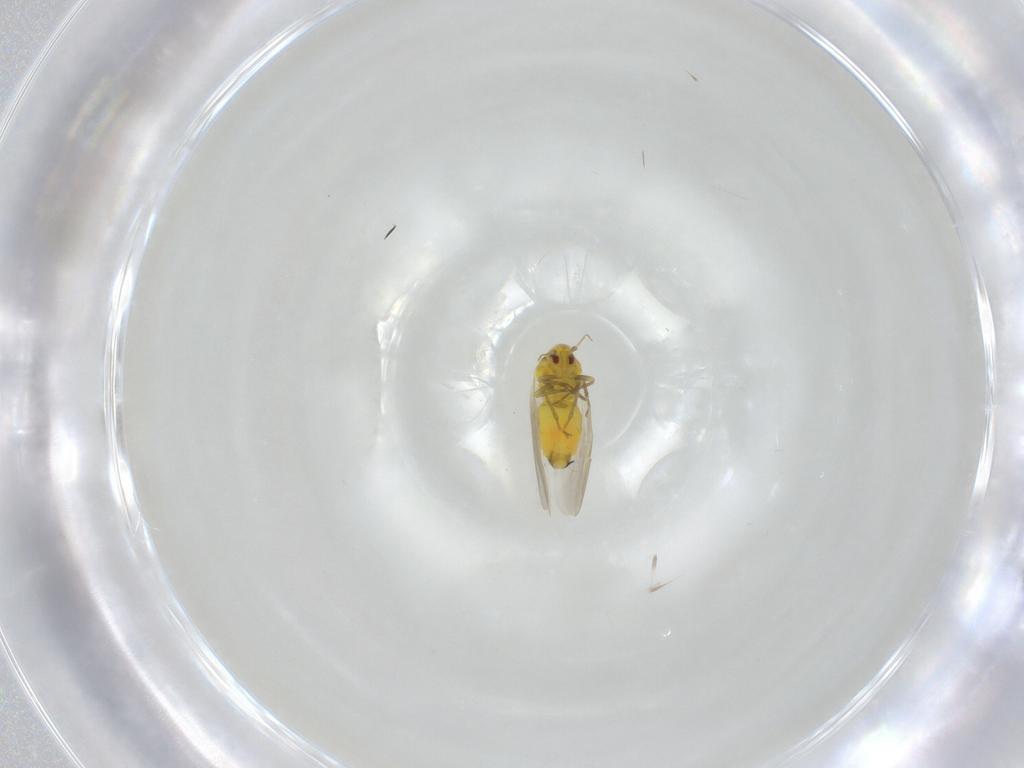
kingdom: Animalia
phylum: Arthropoda
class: Insecta
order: Hemiptera
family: Aleyrodidae
